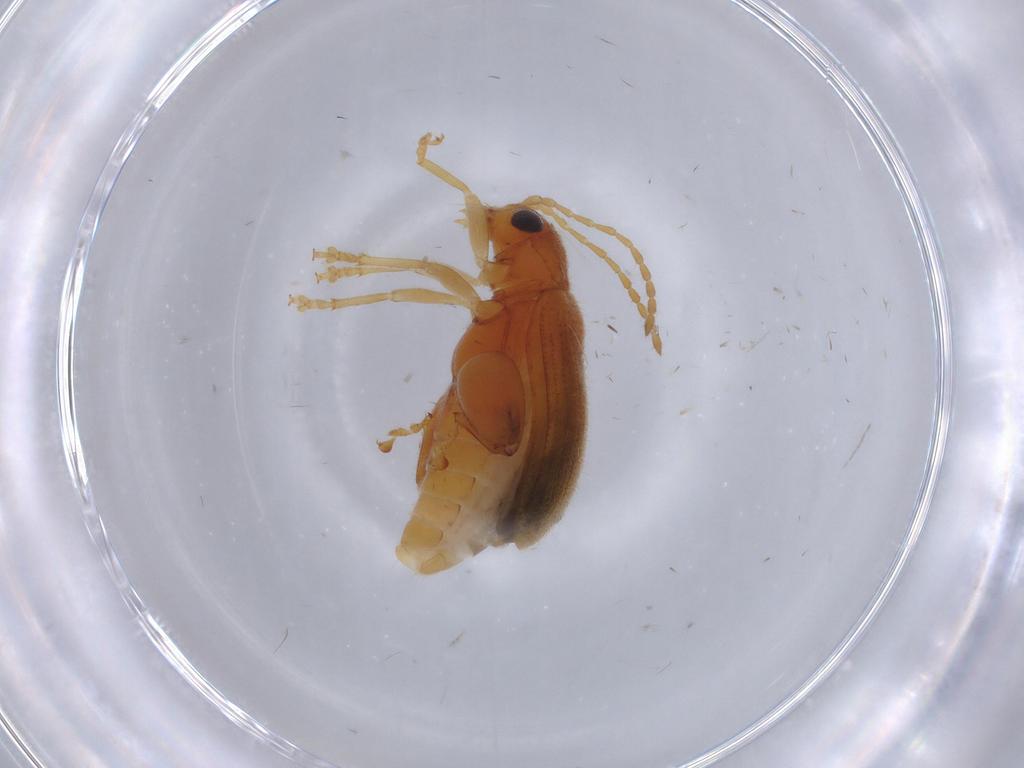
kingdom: Animalia
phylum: Arthropoda
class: Insecta
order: Coleoptera
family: Chrysomelidae
